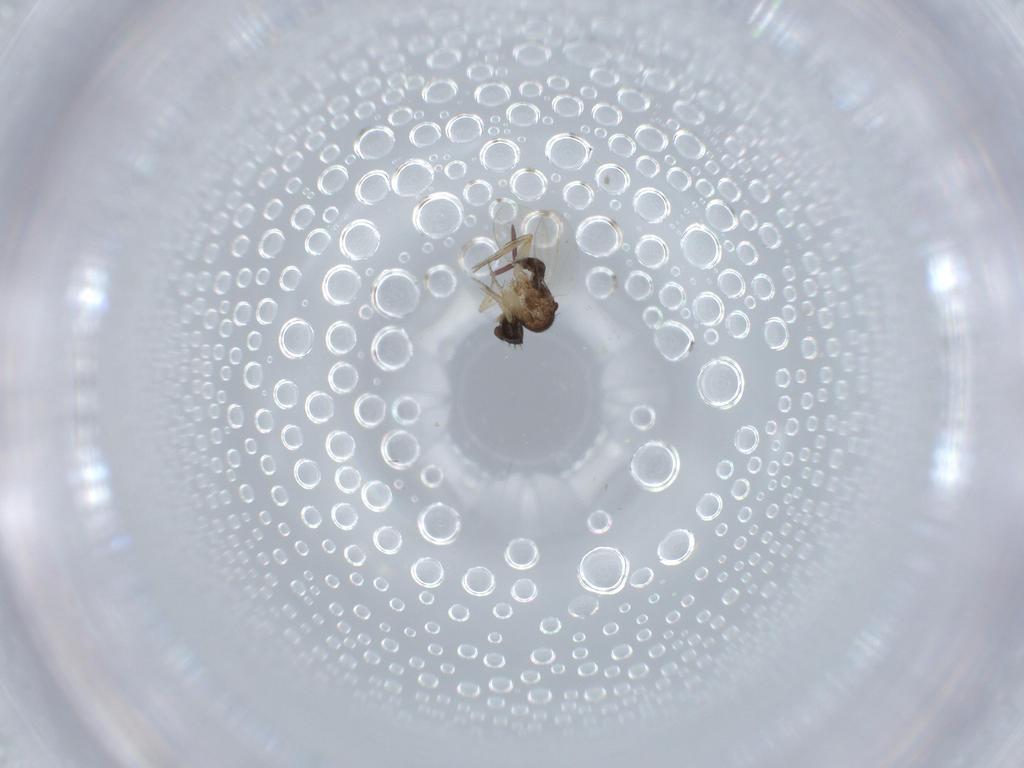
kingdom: Animalia
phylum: Arthropoda
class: Insecta
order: Diptera
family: Phoridae
